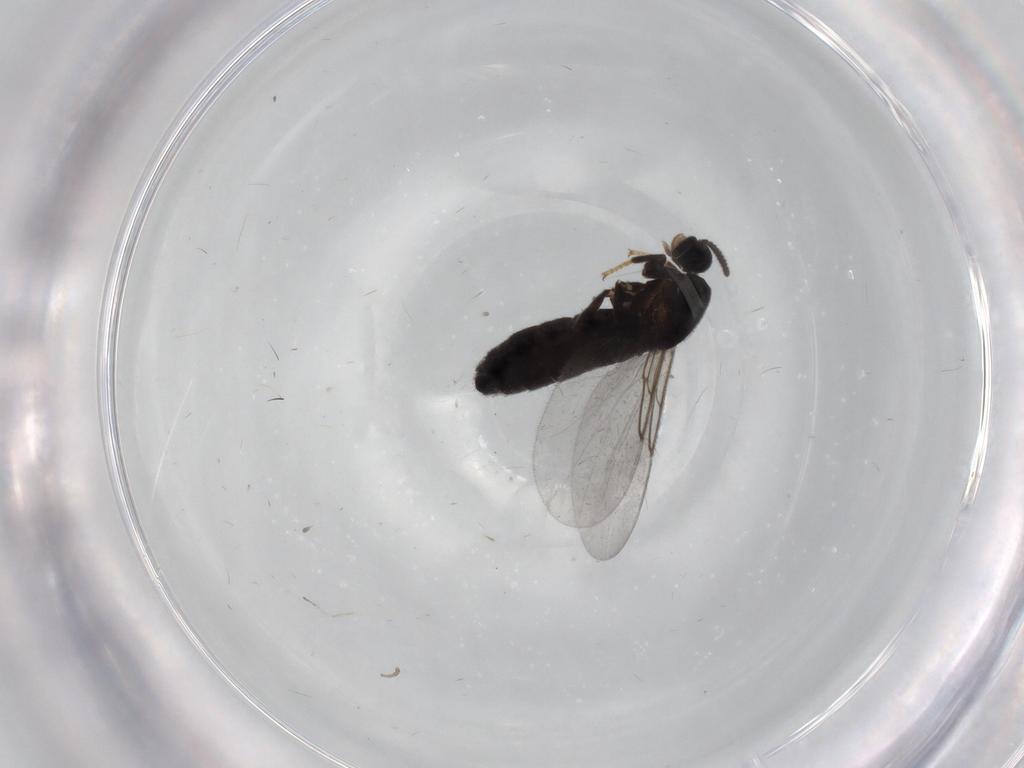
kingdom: Animalia
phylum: Arthropoda
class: Insecta
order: Diptera
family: Scatopsidae
